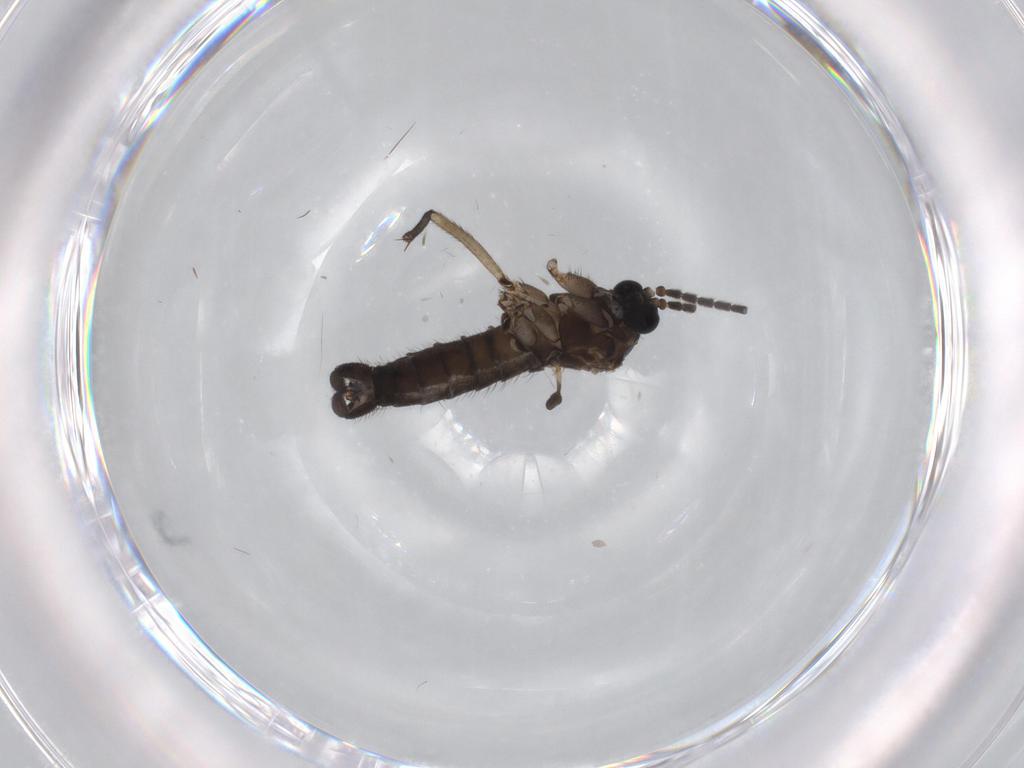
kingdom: Animalia
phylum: Arthropoda
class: Insecta
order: Diptera
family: Sciaridae
